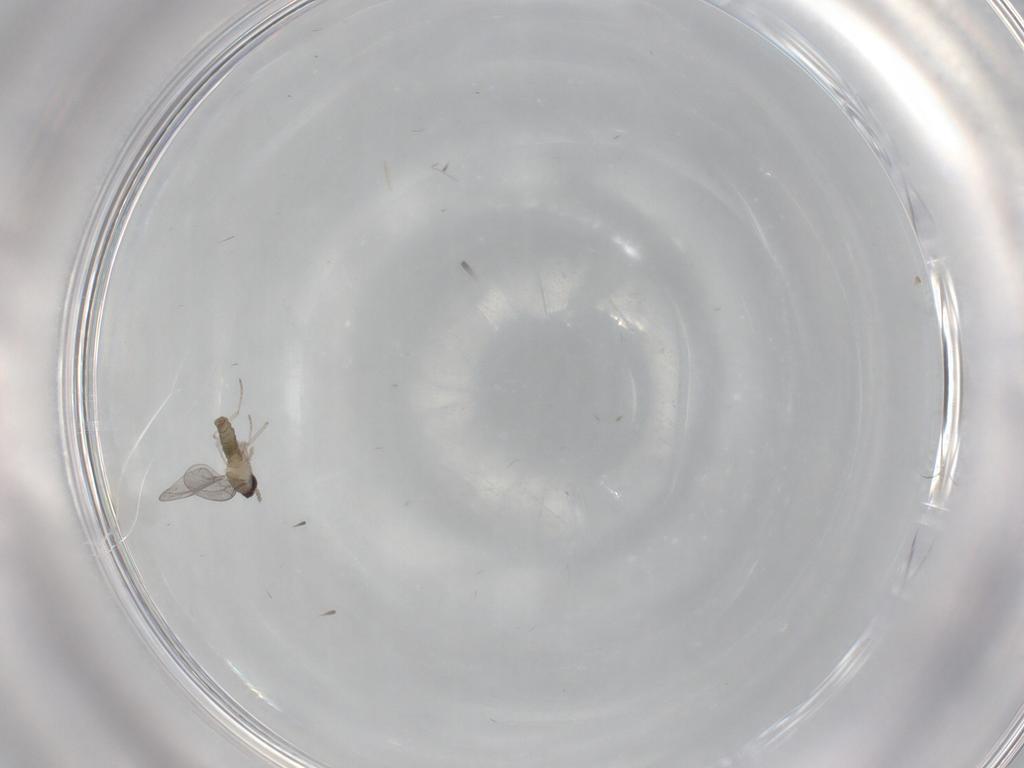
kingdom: Animalia
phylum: Arthropoda
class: Insecta
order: Diptera
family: Cecidomyiidae
